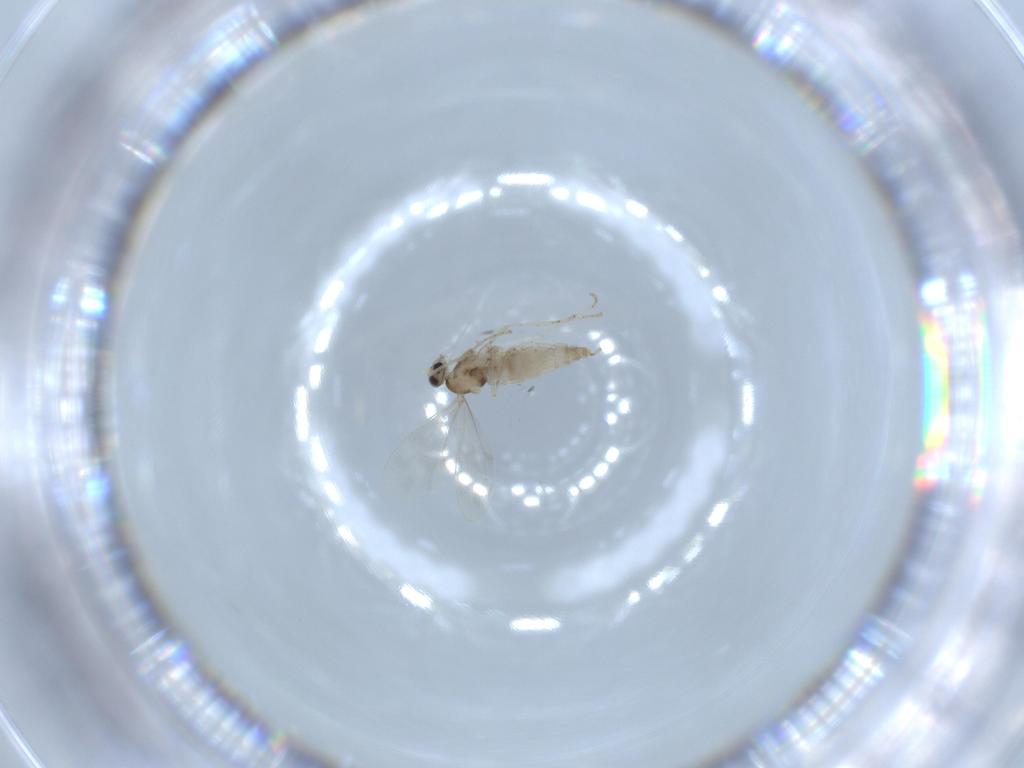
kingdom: Animalia
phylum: Arthropoda
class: Insecta
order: Diptera
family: Cecidomyiidae
